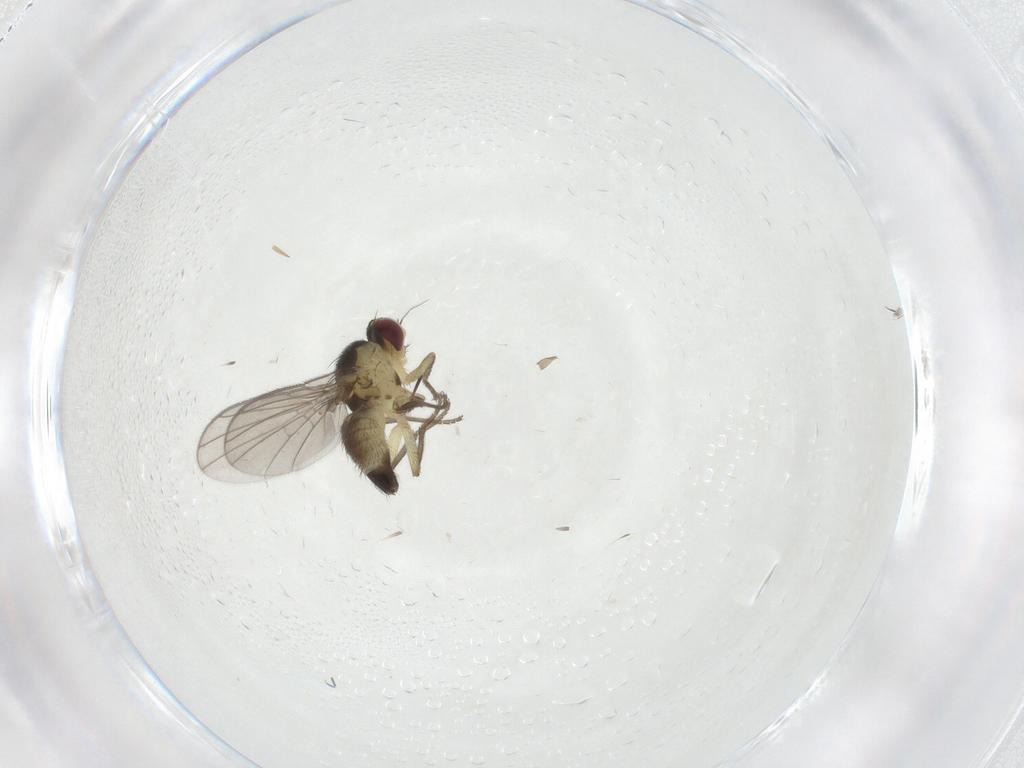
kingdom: Animalia
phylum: Arthropoda
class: Insecta
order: Diptera
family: Agromyzidae
